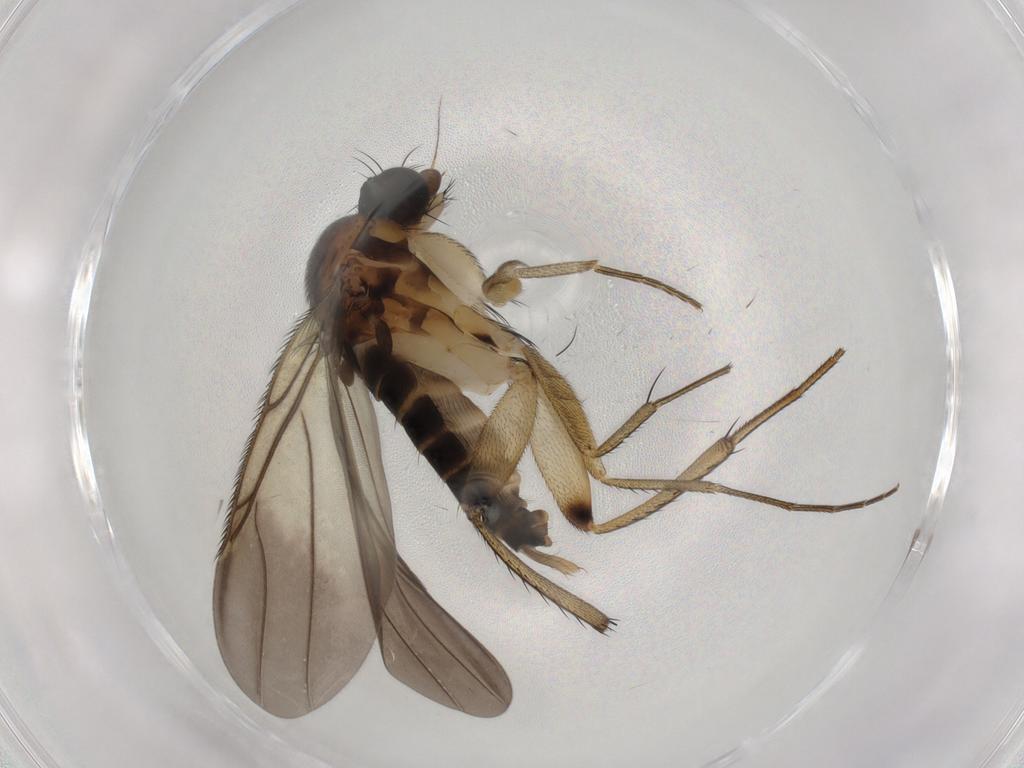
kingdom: Animalia
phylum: Arthropoda
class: Insecta
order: Diptera
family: Phoridae
